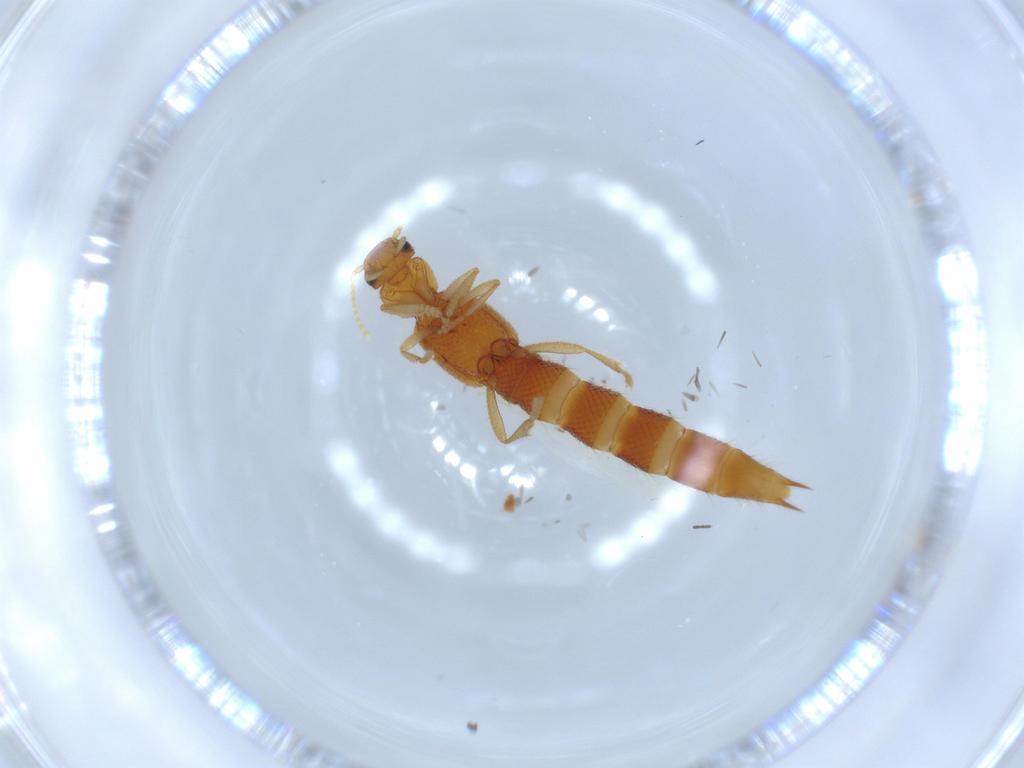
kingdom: Animalia
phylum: Arthropoda
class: Insecta
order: Coleoptera
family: Staphylinidae
